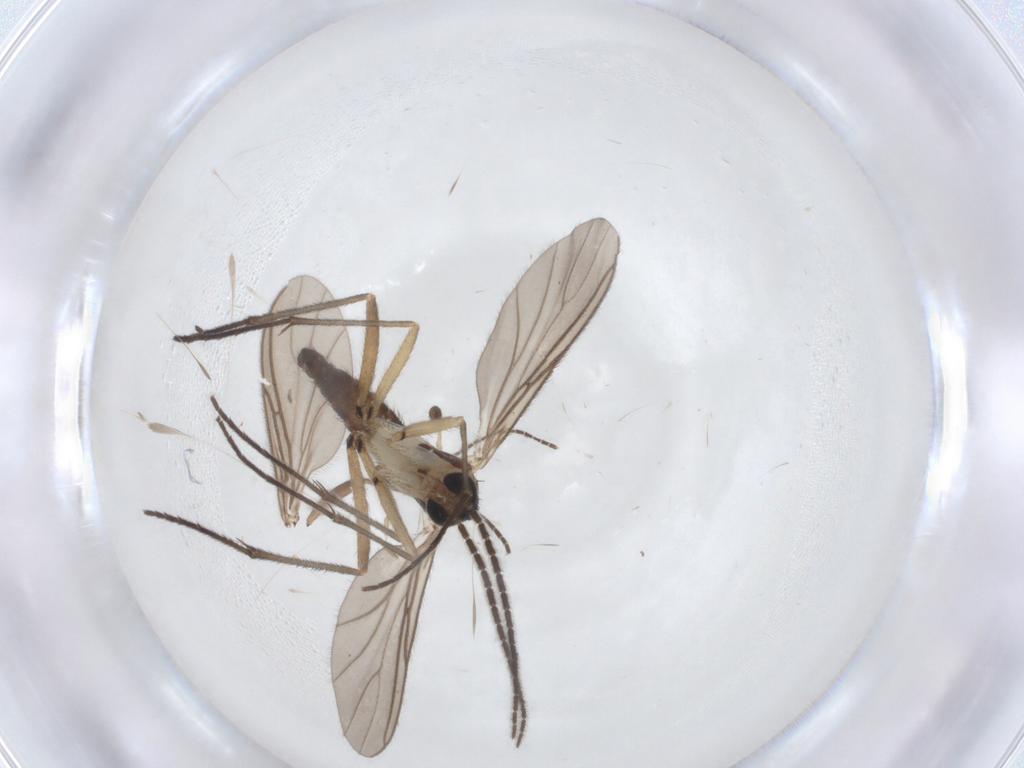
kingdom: Animalia
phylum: Arthropoda
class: Insecta
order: Diptera
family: Sciaridae
